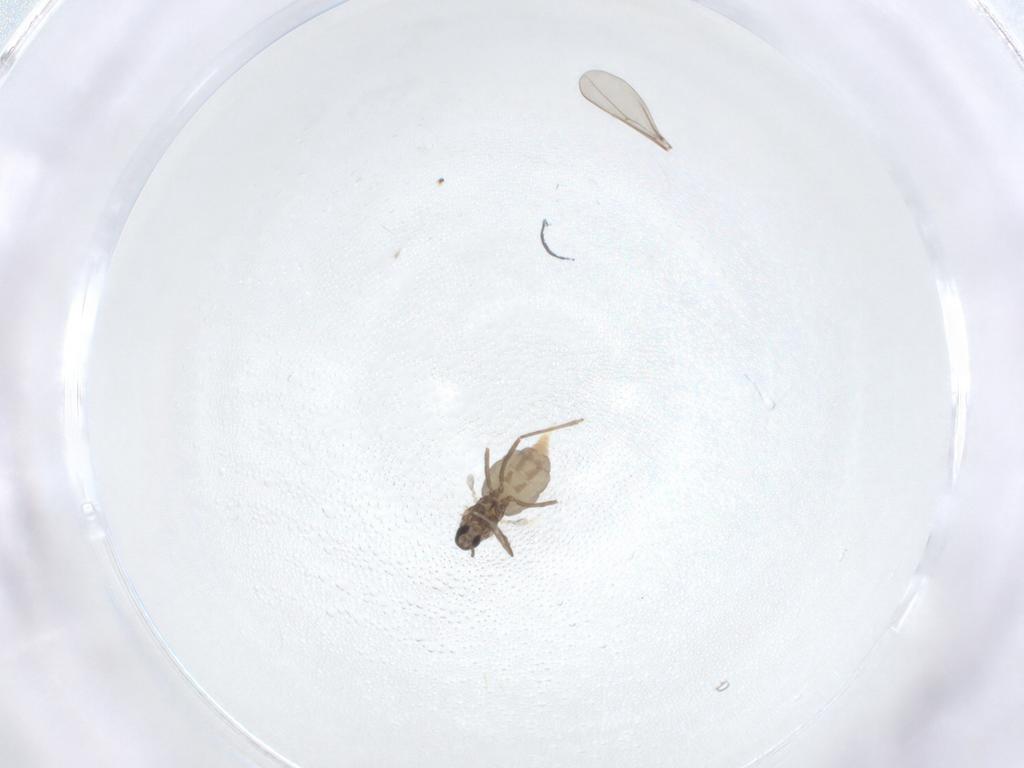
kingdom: Animalia
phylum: Arthropoda
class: Insecta
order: Diptera
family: Cecidomyiidae
